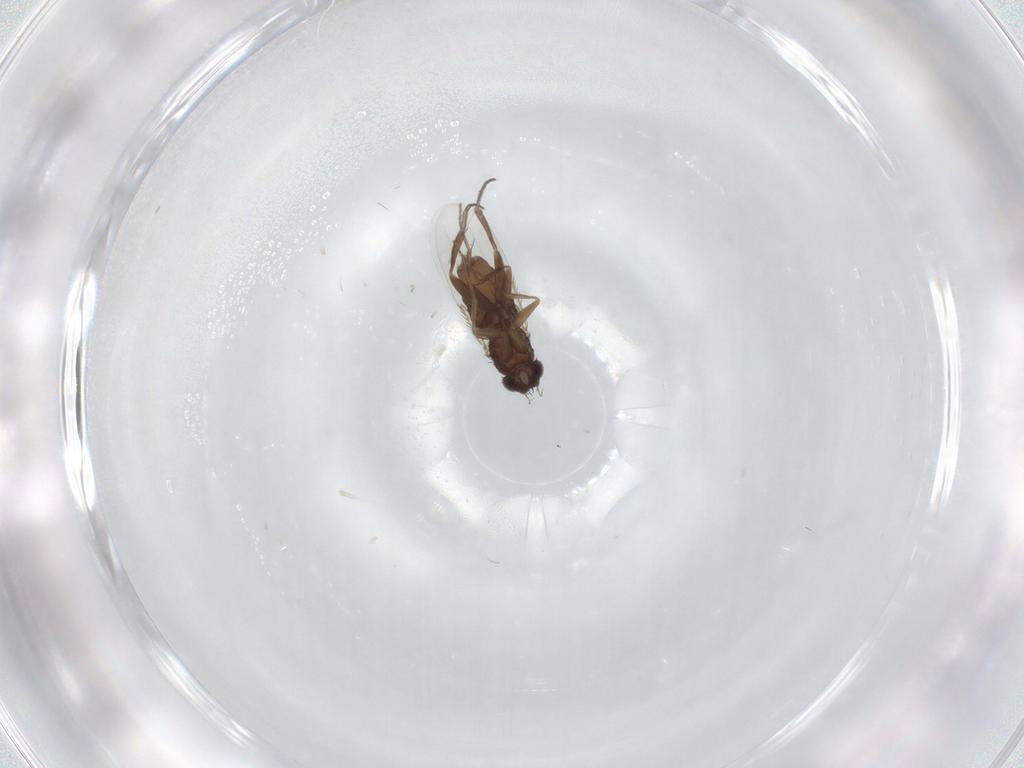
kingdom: Animalia
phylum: Arthropoda
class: Insecta
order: Diptera
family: Phoridae
